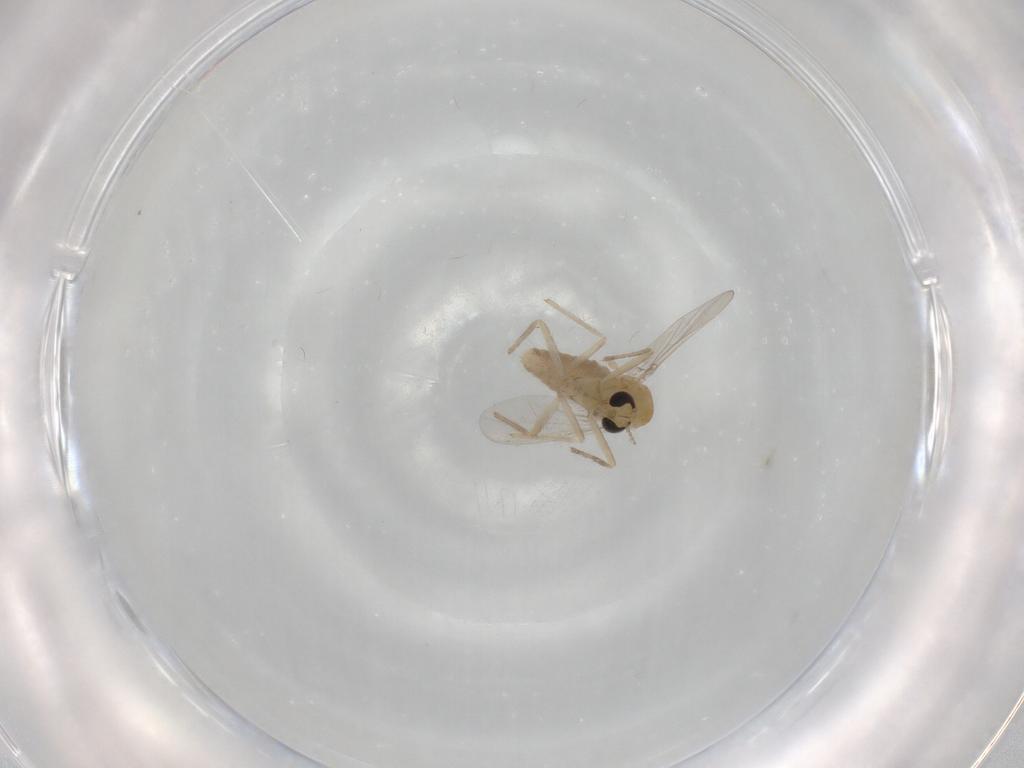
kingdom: Animalia
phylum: Arthropoda
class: Insecta
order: Diptera
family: Chironomidae
